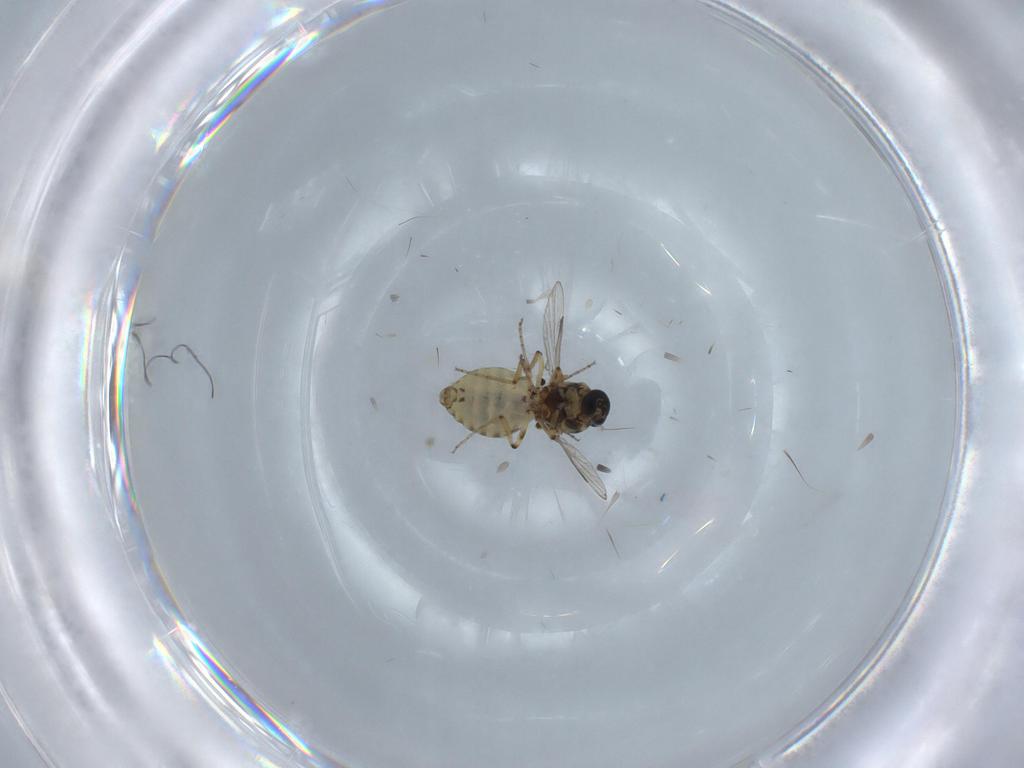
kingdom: Animalia
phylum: Arthropoda
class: Insecta
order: Diptera
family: Ceratopogonidae
